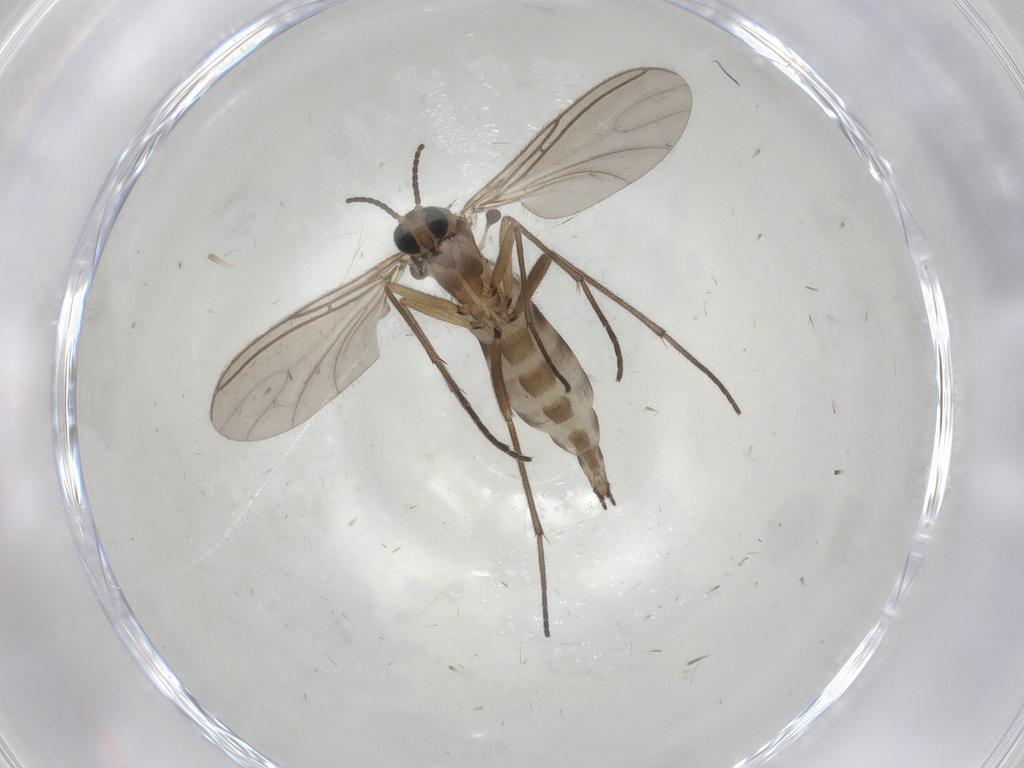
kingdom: Animalia
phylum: Arthropoda
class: Insecta
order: Diptera
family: Sciaridae
